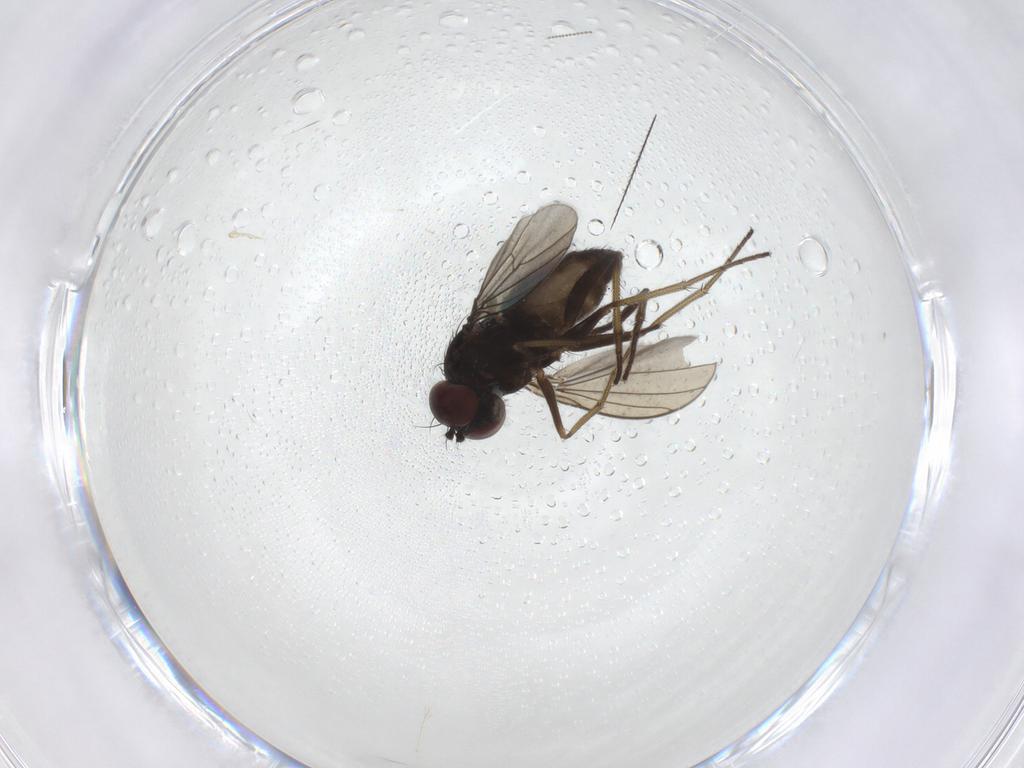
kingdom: Animalia
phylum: Arthropoda
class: Insecta
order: Diptera
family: Dolichopodidae
